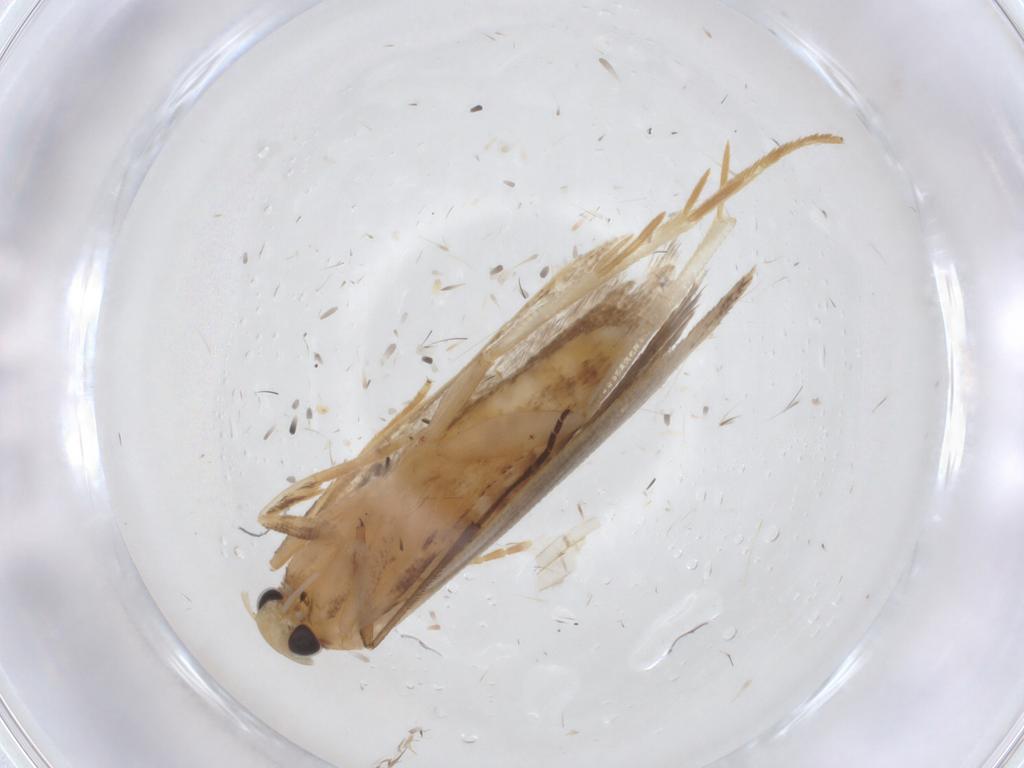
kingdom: Animalia
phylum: Arthropoda
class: Insecta
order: Lepidoptera
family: Gelechiidae
